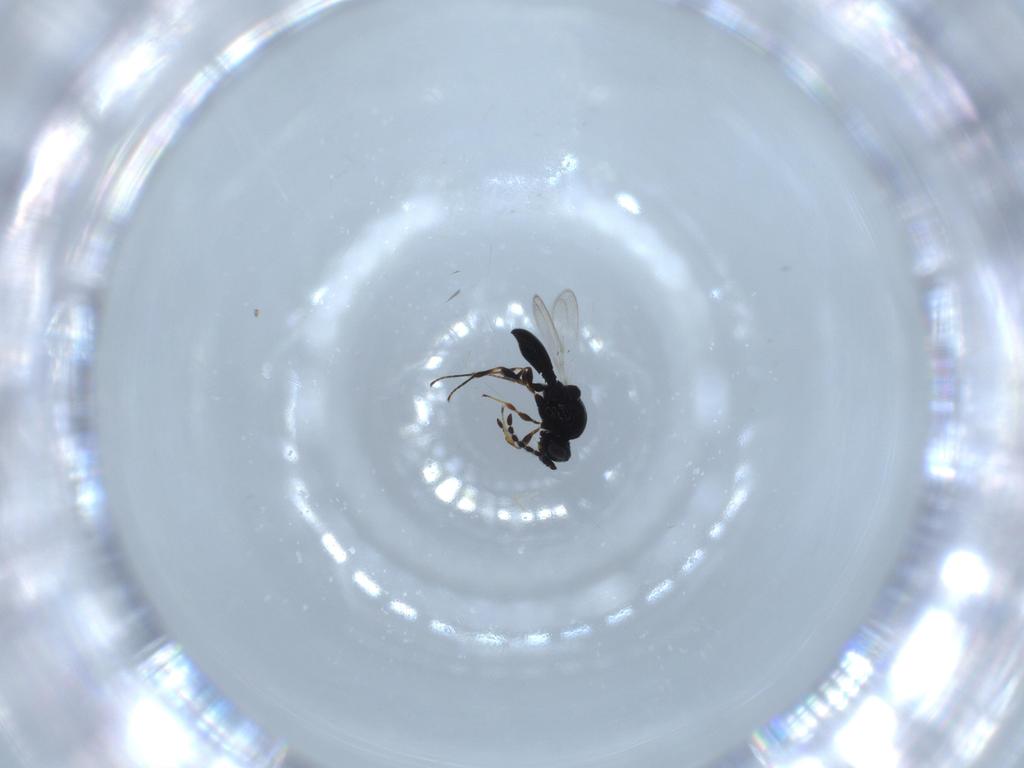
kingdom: Animalia
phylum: Arthropoda
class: Insecta
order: Hymenoptera
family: Platygastridae
